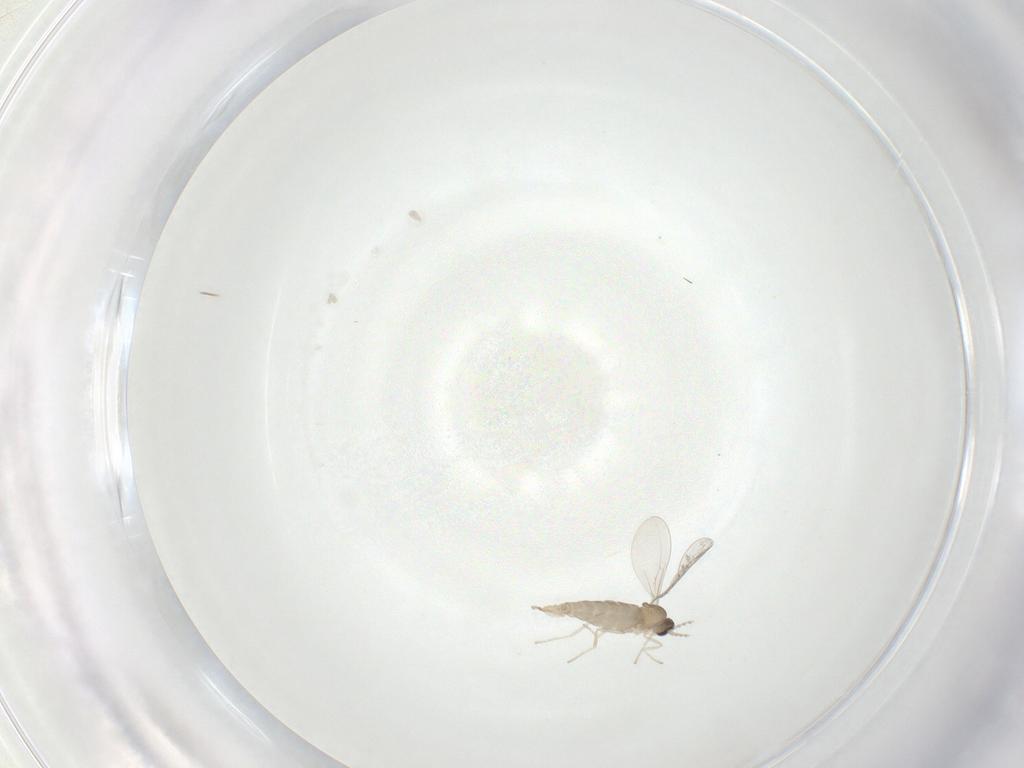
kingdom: Animalia
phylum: Arthropoda
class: Insecta
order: Diptera
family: Cecidomyiidae
